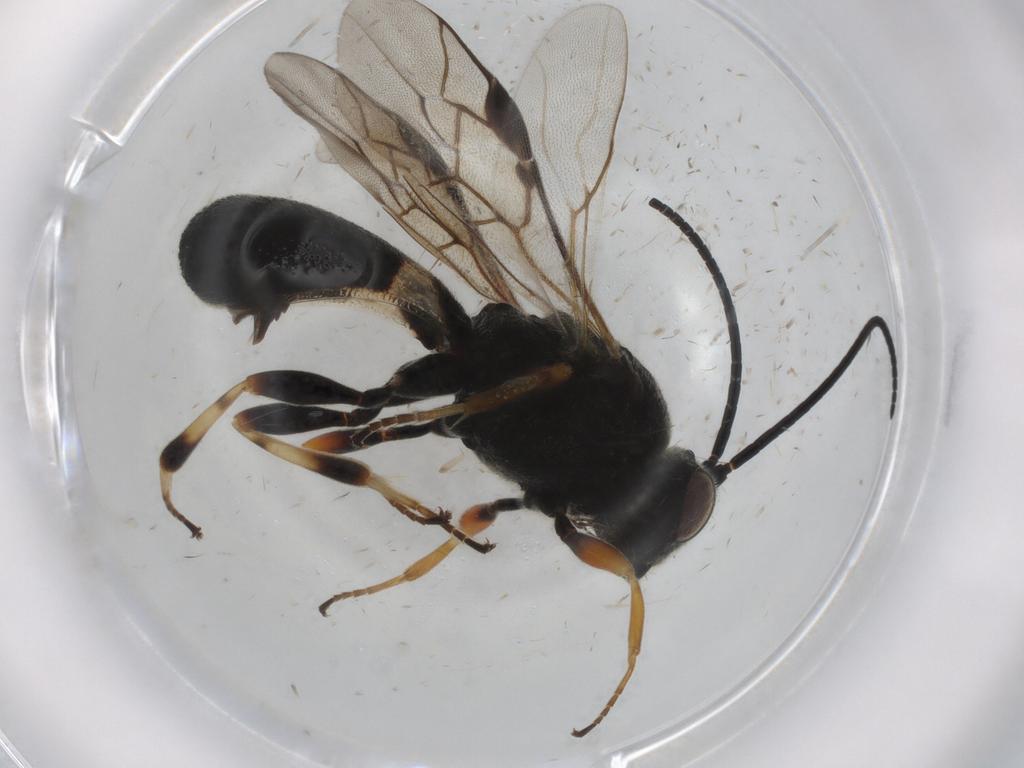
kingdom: Animalia
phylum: Arthropoda
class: Insecta
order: Hymenoptera
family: Braconidae
